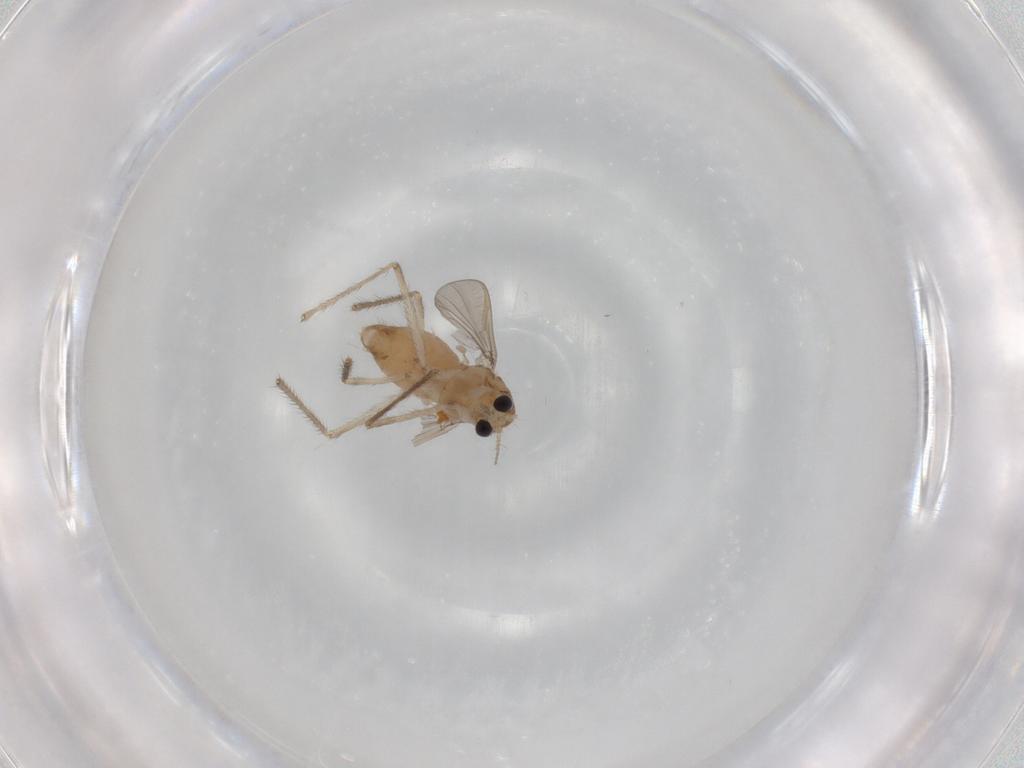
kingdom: Animalia
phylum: Arthropoda
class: Insecta
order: Diptera
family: Chironomidae
